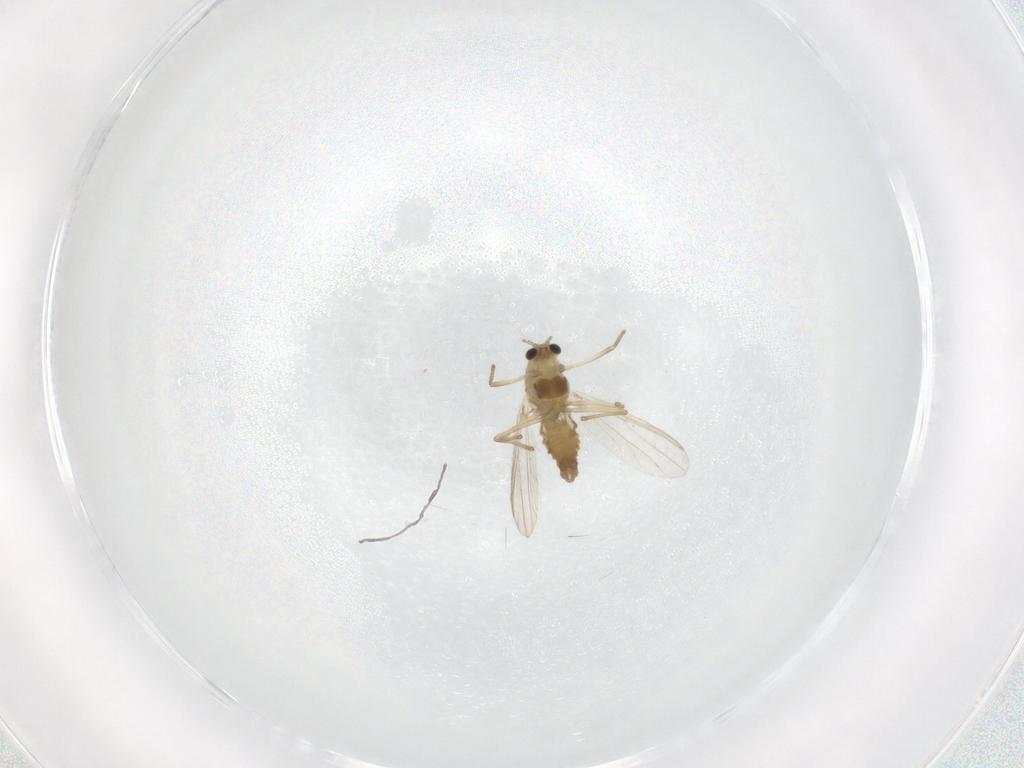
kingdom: Animalia
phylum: Arthropoda
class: Insecta
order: Diptera
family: Chironomidae
